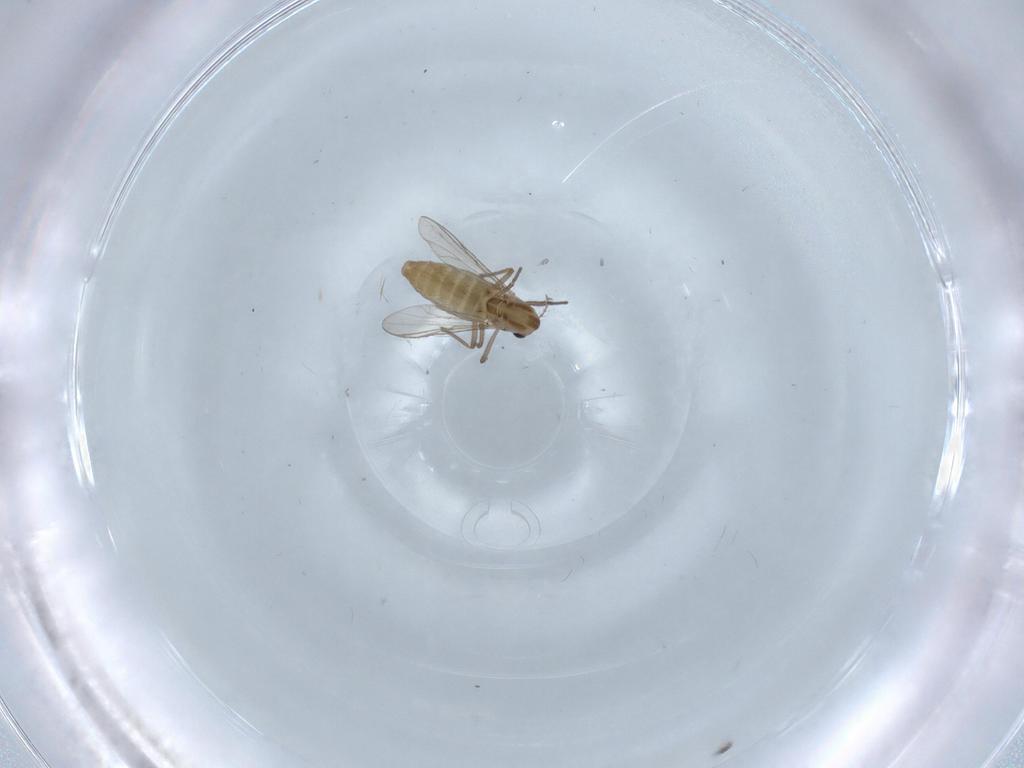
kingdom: Animalia
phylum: Arthropoda
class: Insecta
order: Diptera
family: Chironomidae
